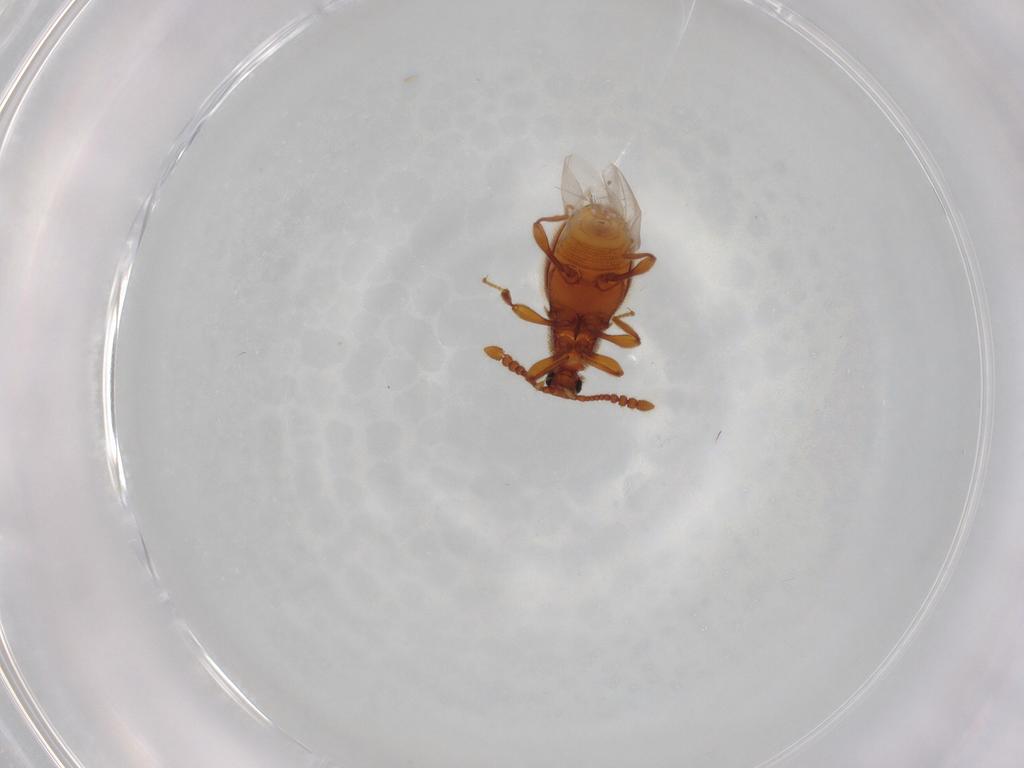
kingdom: Animalia
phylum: Arthropoda
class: Insecta
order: Coleoptera
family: Staphylinidae
